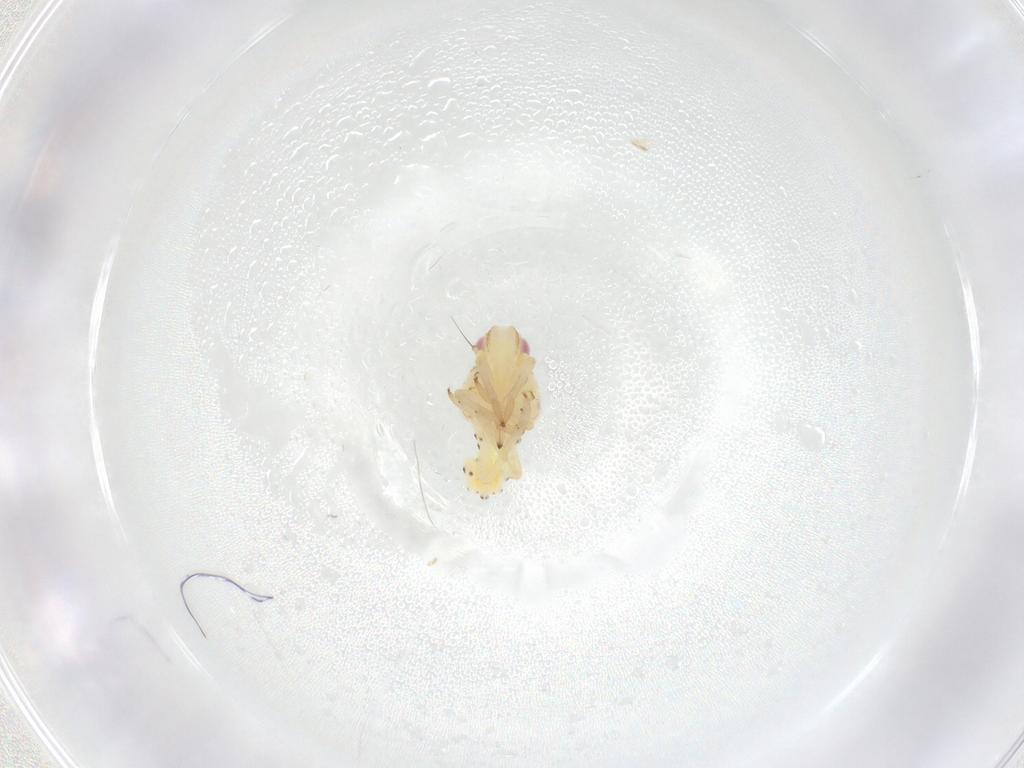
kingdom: Animalia
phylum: Arthropoda
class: Insecta
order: Hemiptera
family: Tropiduchidae
